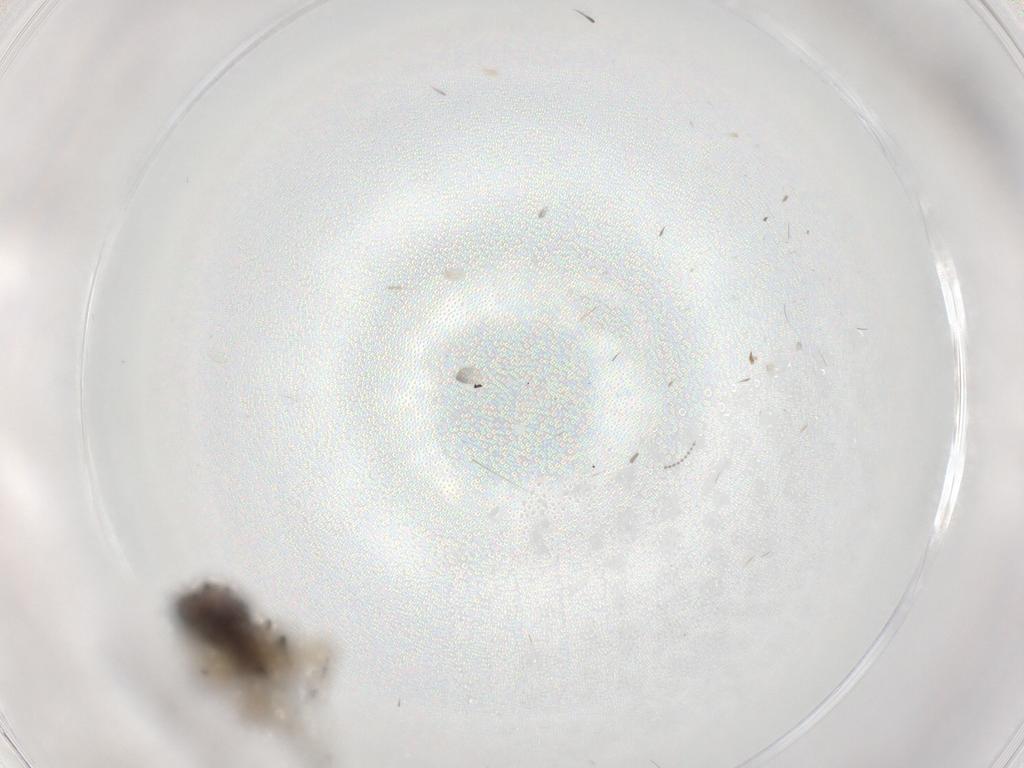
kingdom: Animalia
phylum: Arthropoda
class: Insecta
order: Diptera
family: Phoridae
